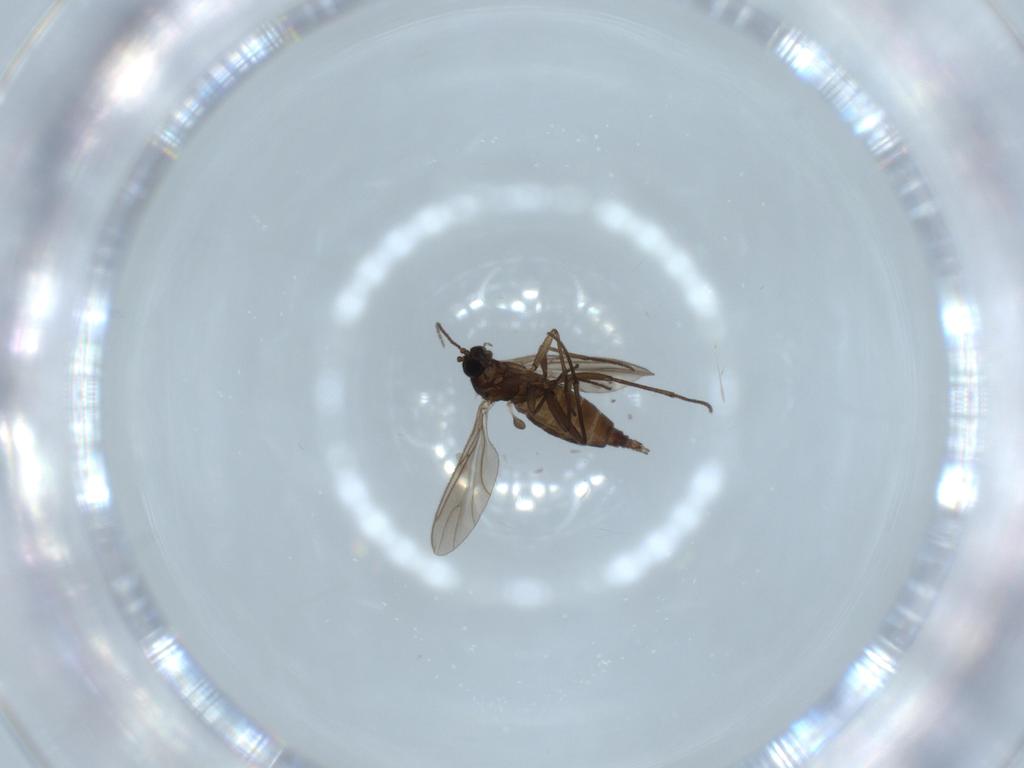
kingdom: Animalia
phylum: Arthropoda
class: Insecta
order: Diptera
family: Sciaridae
